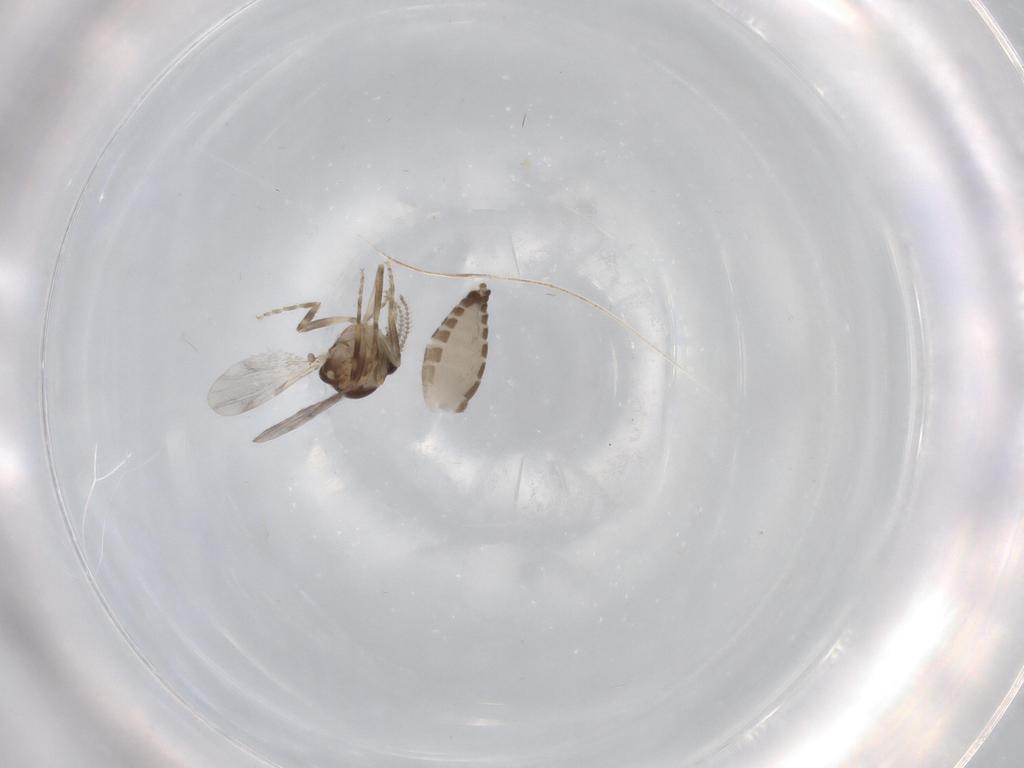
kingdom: Animalia
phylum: Arthropoda
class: Insecta
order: Diptera
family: Ceratopogonidae
